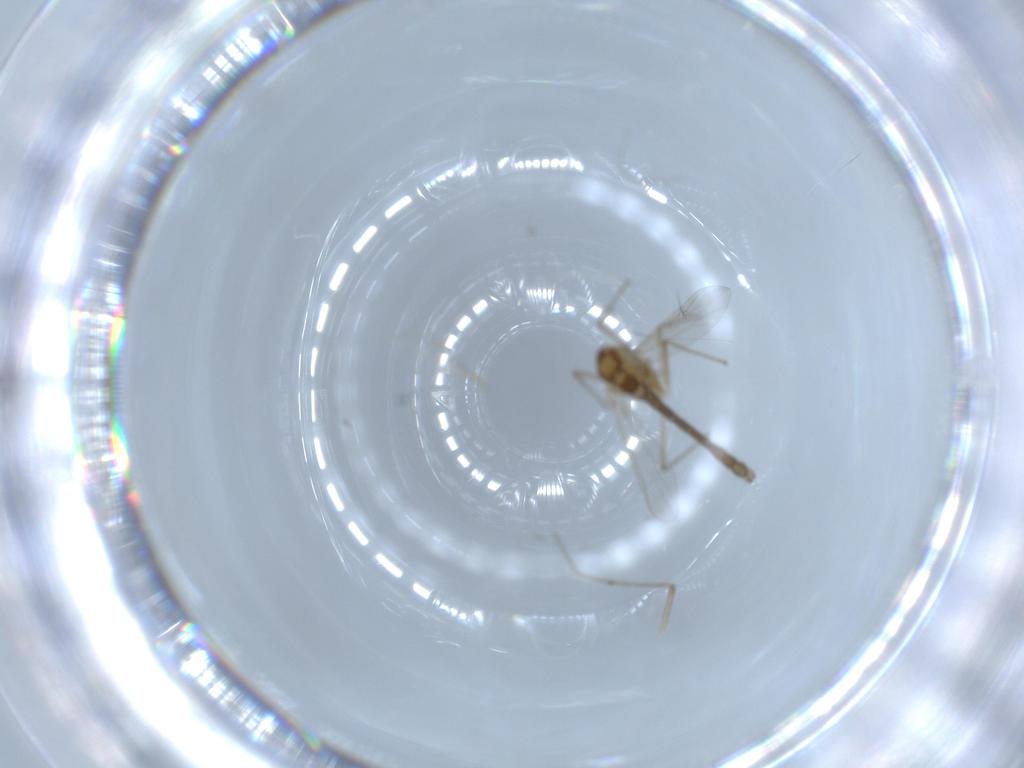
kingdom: Animalia
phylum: Arthropoda
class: Insecta
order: Diptera
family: Chironomidae
